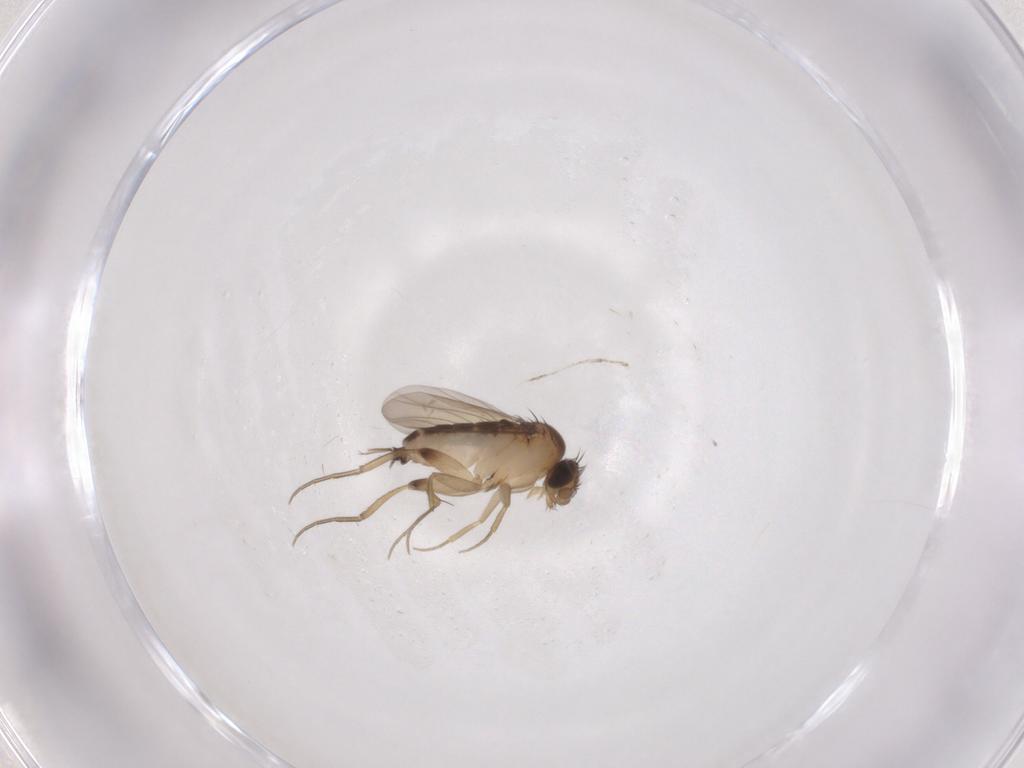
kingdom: Animalia
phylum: Arthropoda
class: Insecta
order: Diptera
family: Phoridae
